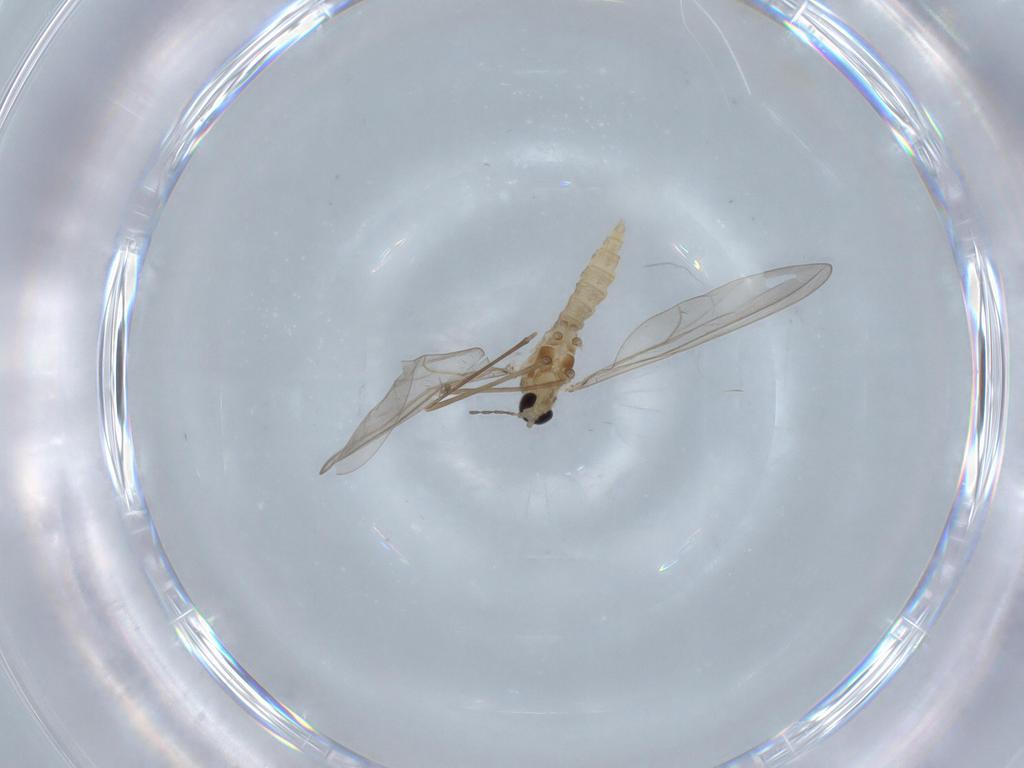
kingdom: Animalia
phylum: Arthropoda
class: Insecta
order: Diptera
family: Cecidomyiidae
